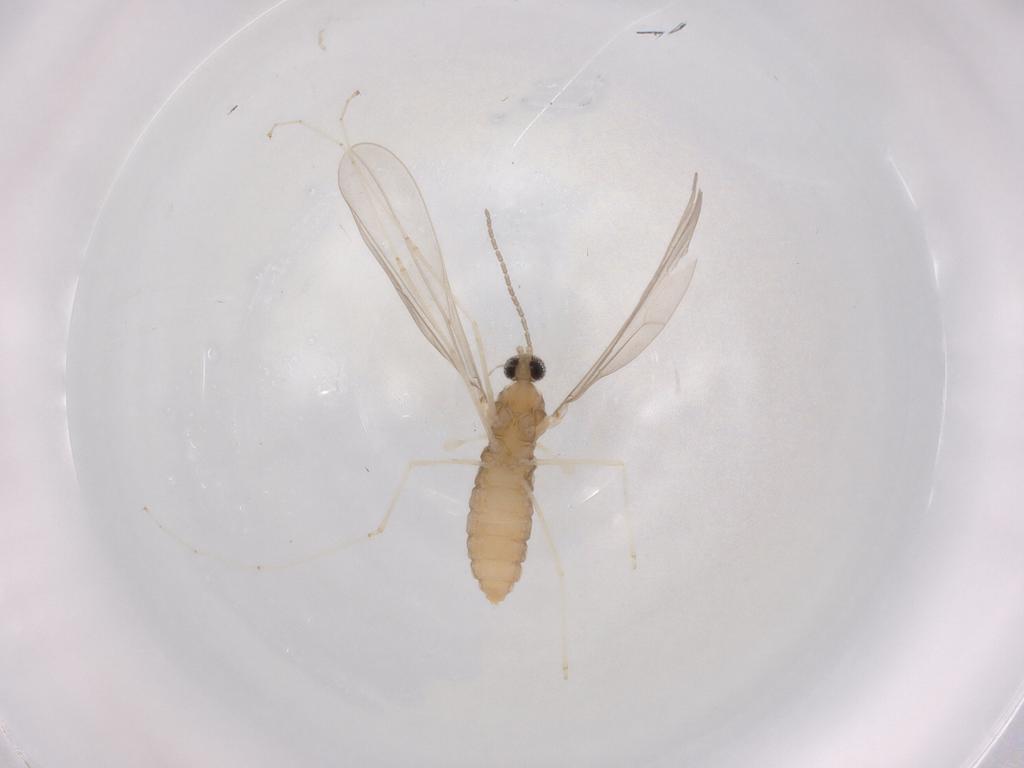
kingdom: Animalia
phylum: Arthropoda
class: Insecta
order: Diptera
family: Cecidomyiidae
